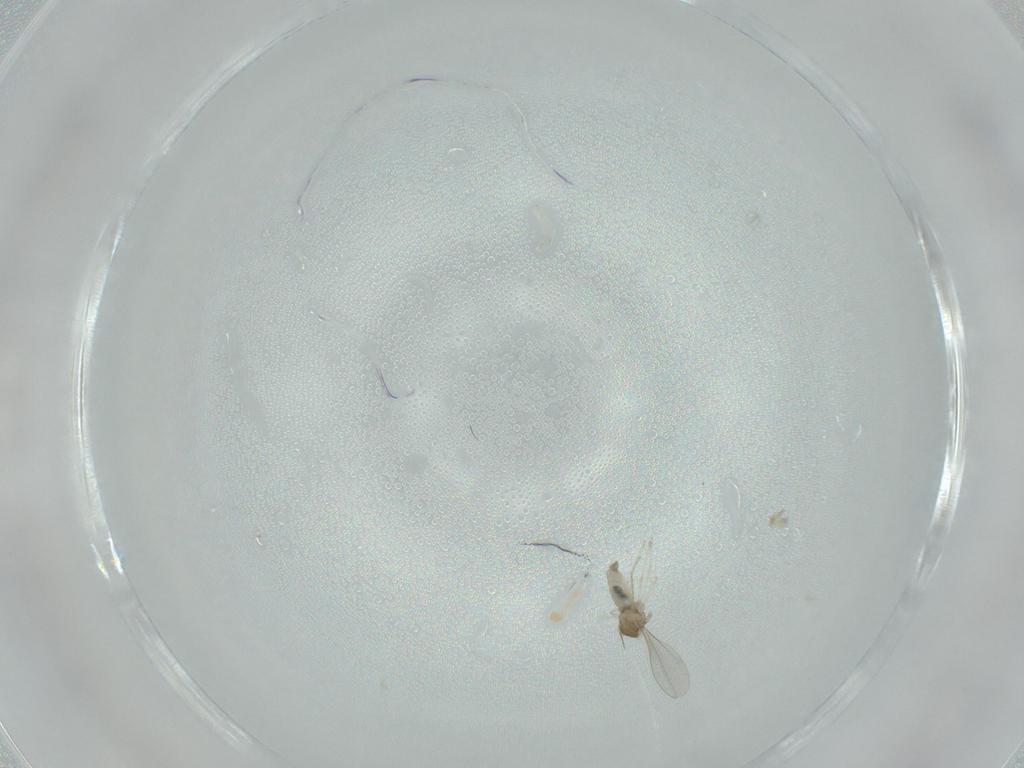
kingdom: Animalia
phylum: Arthropoda
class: Insecta
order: Diptera
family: Cecidomyiidae
